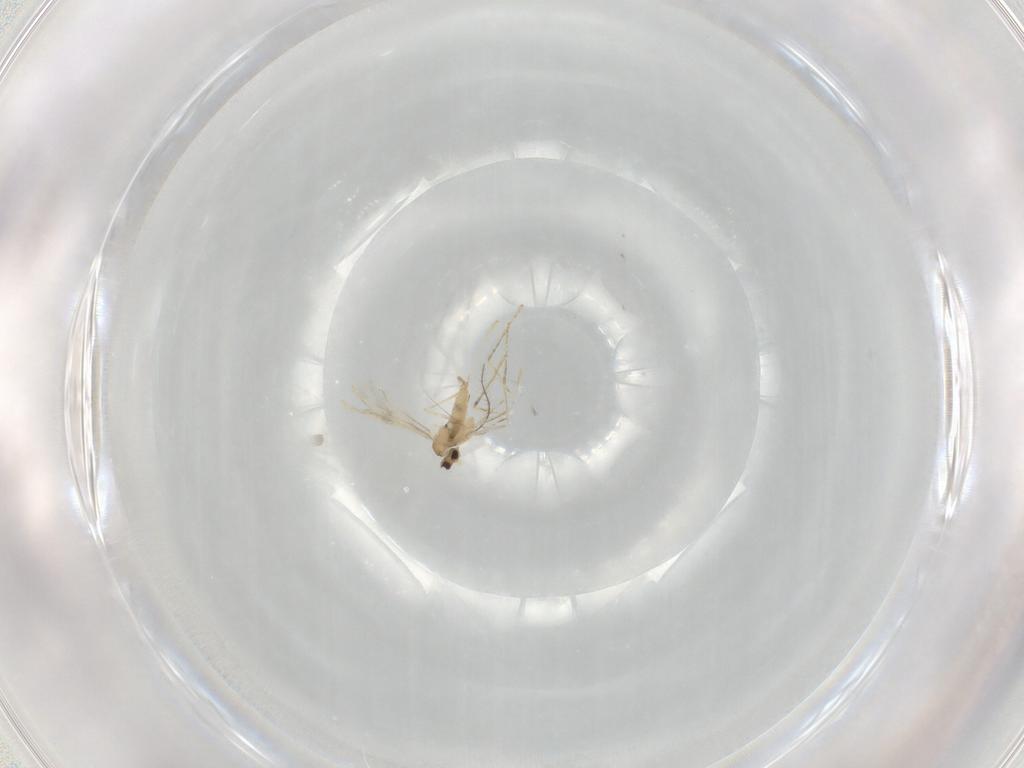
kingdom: Animalia
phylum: Arthropoda
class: Insecta
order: Diptera
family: Cecidomyiidae
